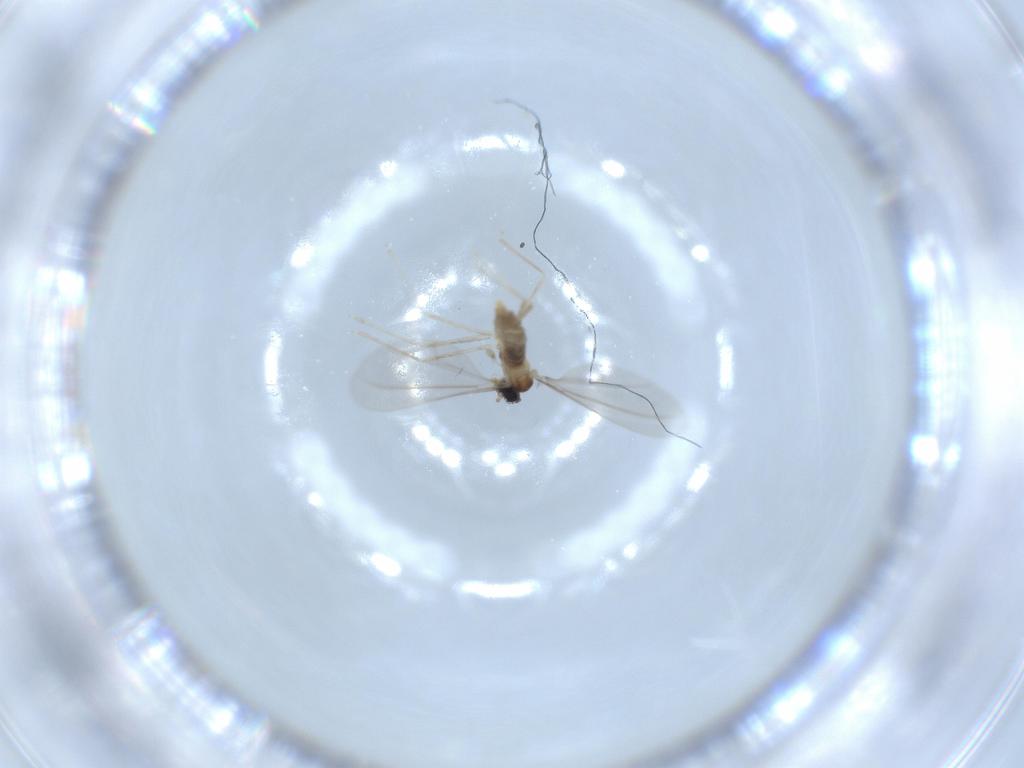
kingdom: Animalia
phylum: Arthropoda
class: Insecta
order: Diptera
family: Cecidomyiidae
